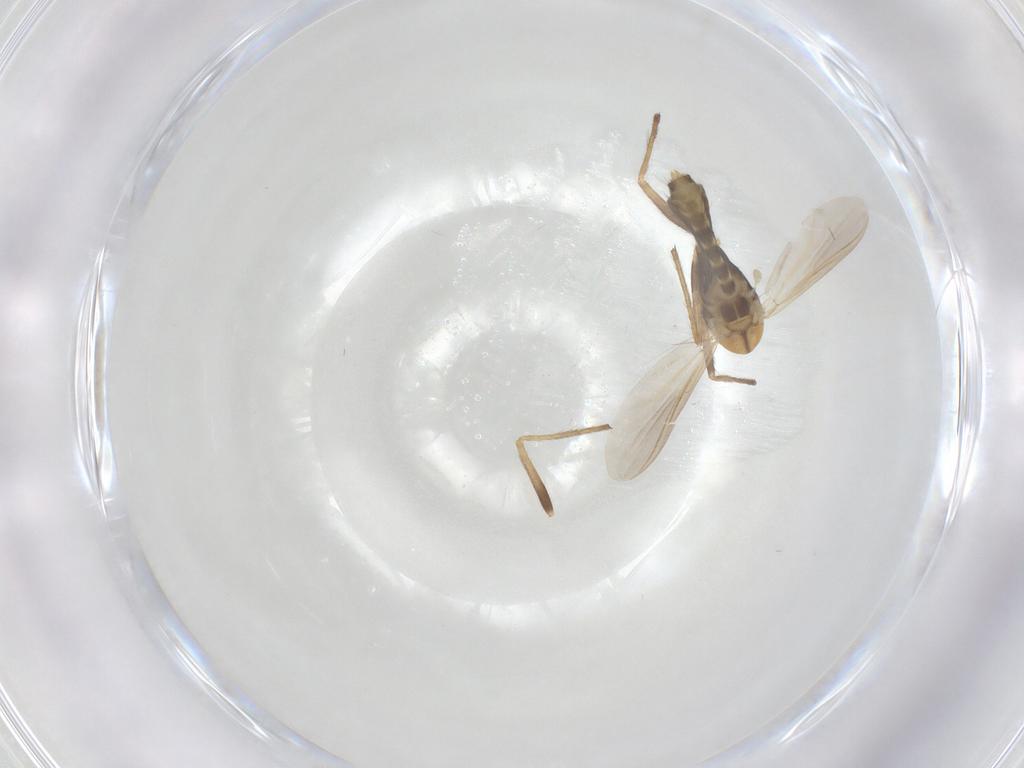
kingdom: Animalia
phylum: Arthropoda
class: Insecta
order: Diptera
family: Chironomidae
